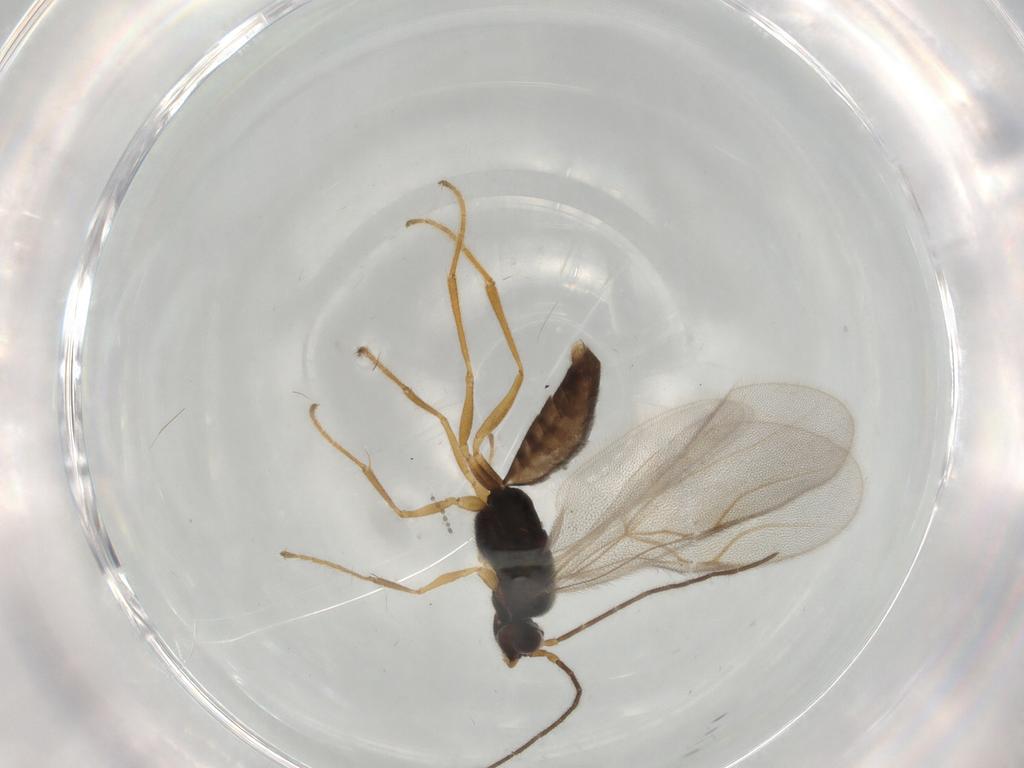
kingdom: Animalia
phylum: Arthropoda
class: Insecta
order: Hymenoptera
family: Dryinidae
